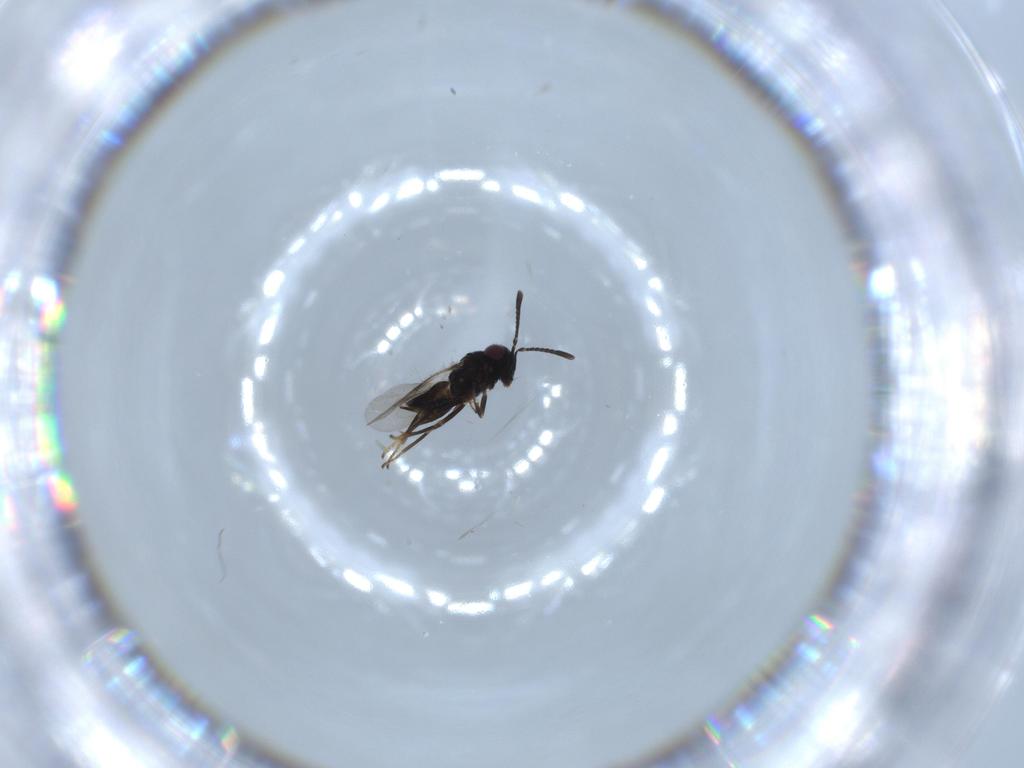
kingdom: Animalia
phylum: Arthropoda
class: Insecta
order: Hymenoptera
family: Encyrtidae
